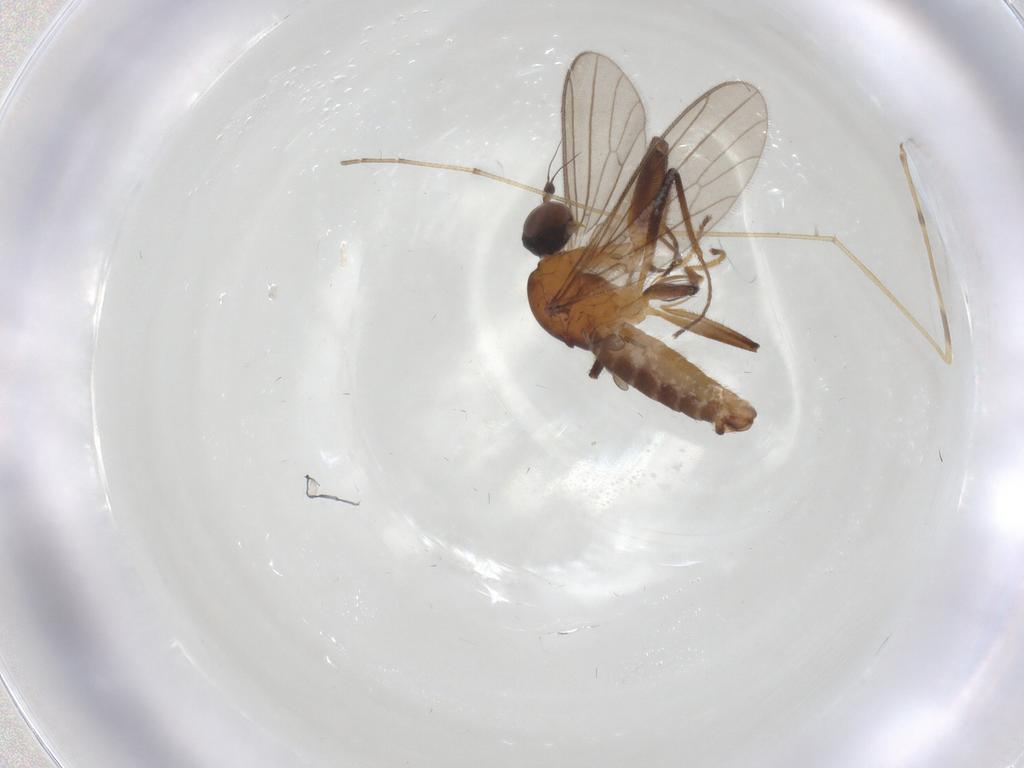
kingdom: Animalia
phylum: Arthropoda
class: Insecta
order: Diptera
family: Empididae
